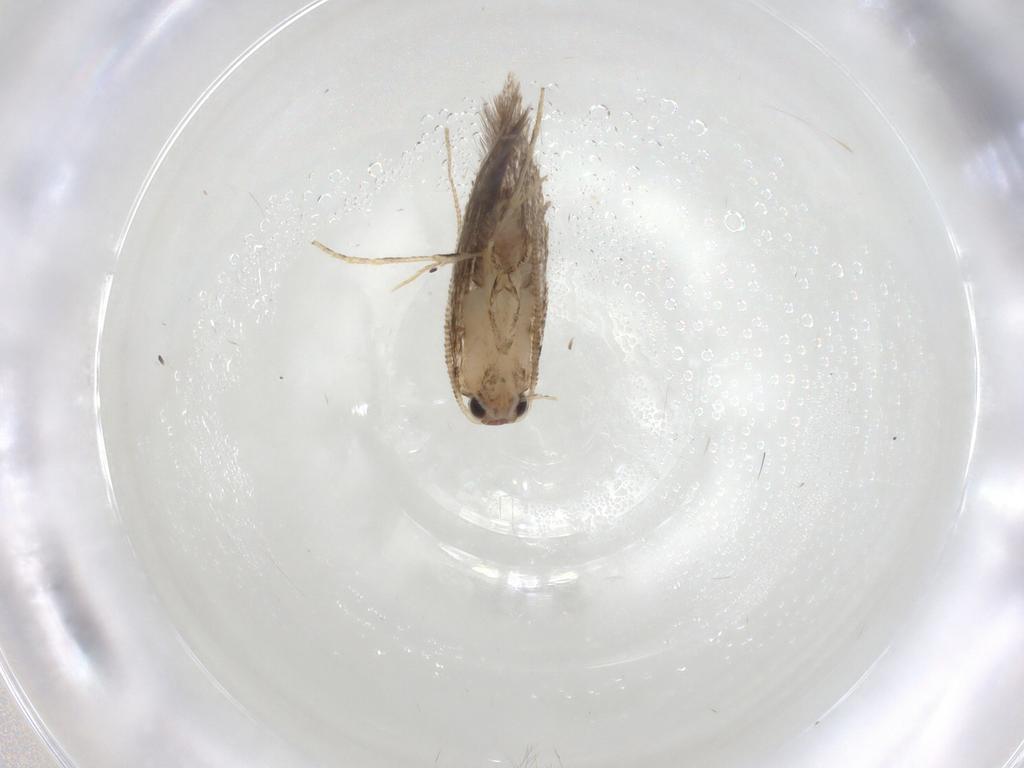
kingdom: Animalia
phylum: Arthropoda
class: Insecta
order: Lepidoptera
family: Tineidae
